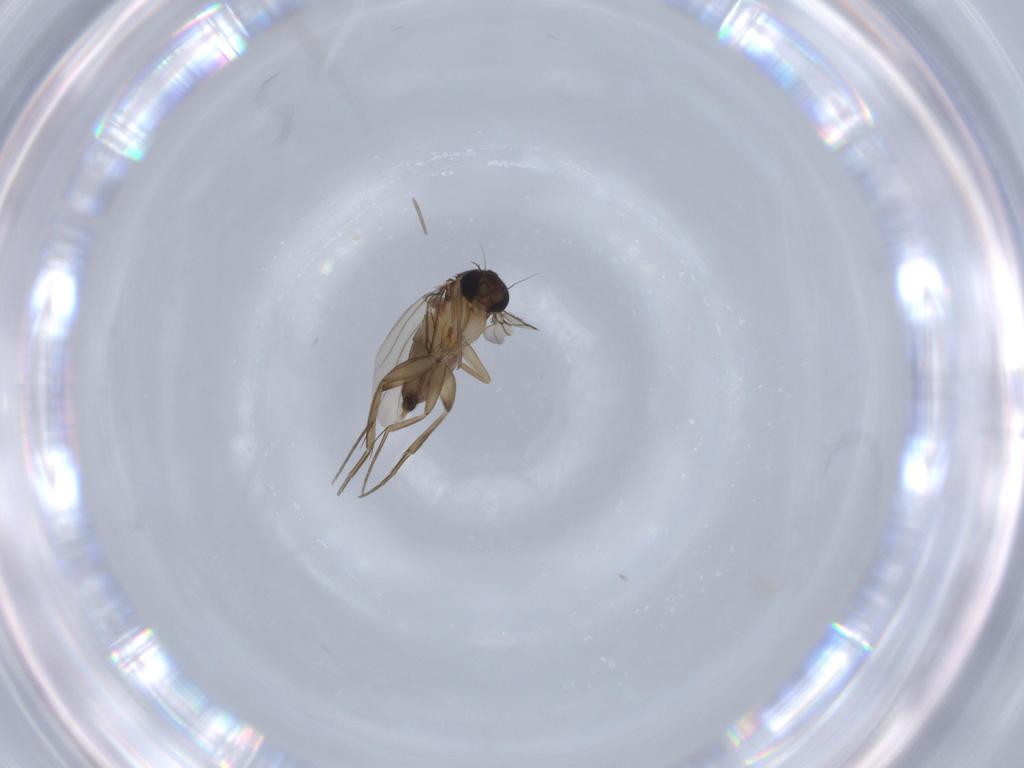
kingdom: Animalia
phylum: Arthropoda
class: Insecta
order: Diptera
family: Phoridae
